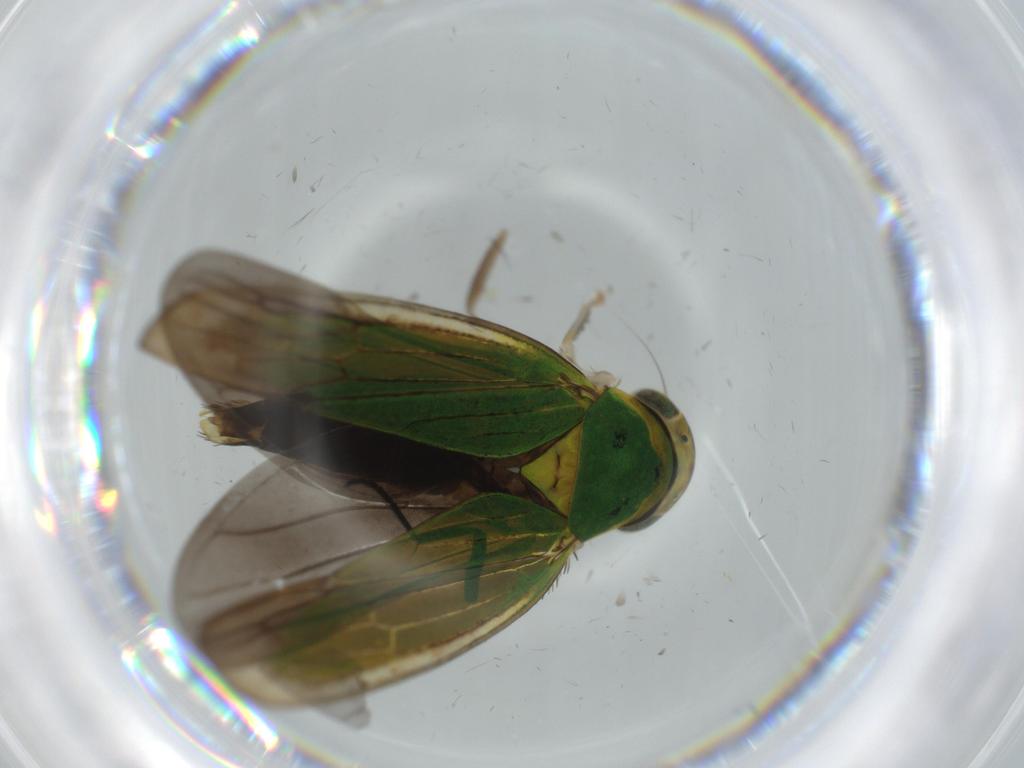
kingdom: Animalia
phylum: Arthropoda
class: Insecta
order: Hemiptera
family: Cicadellidae
